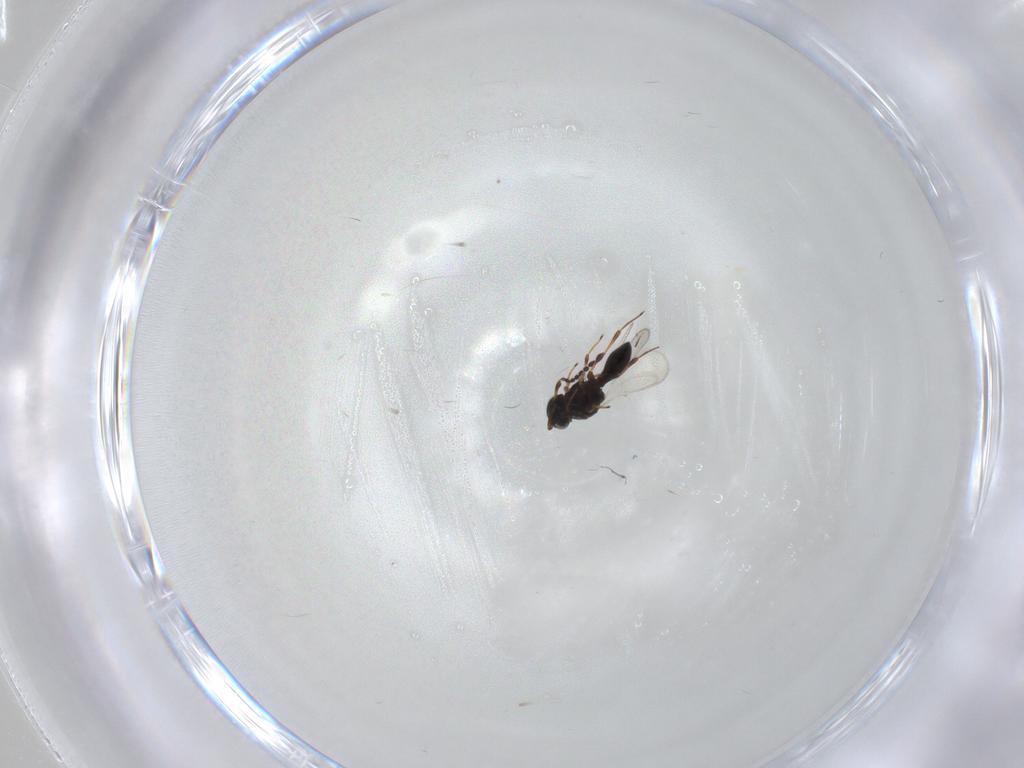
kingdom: Animalia
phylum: Arthropoda
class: Insecta
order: Hymenoptera
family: Platygastridae
